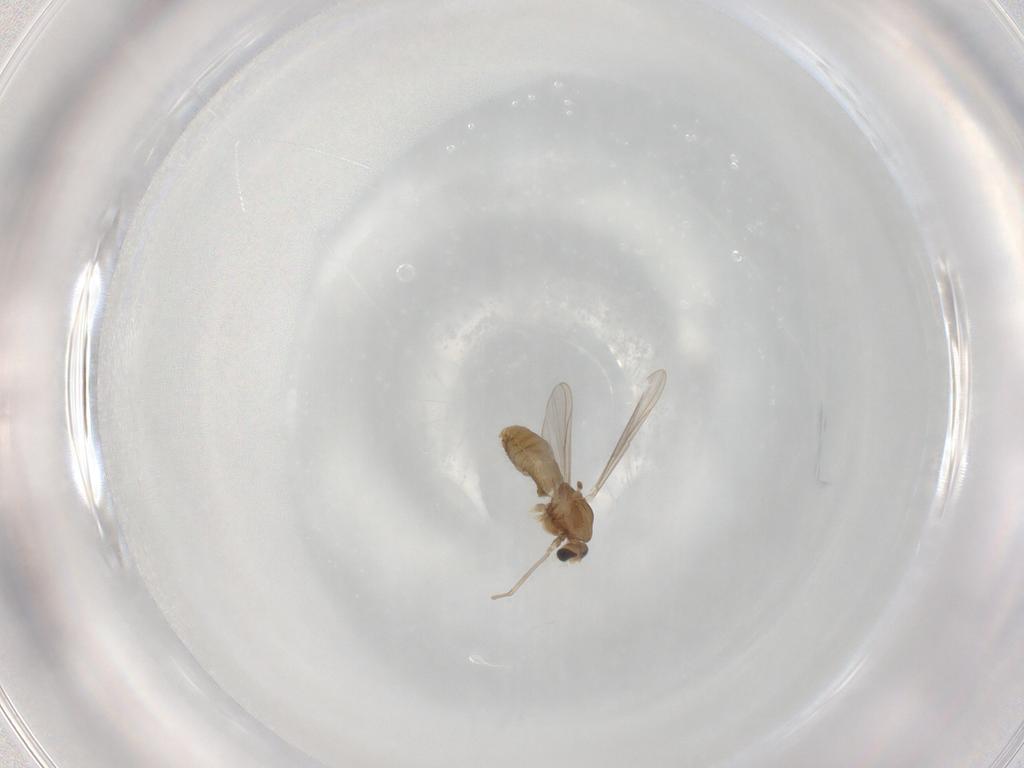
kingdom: Animalia
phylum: Arthropoda
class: Insecta
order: Diptera
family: Chironomidae
